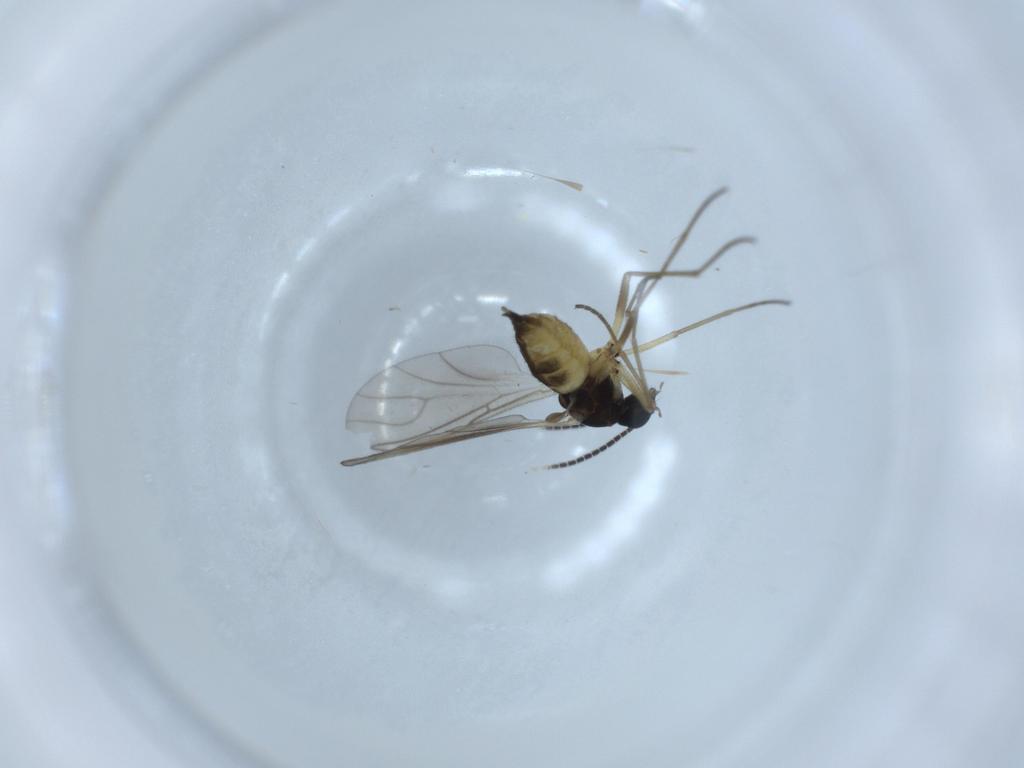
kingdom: Animalia
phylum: Arthropoda
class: Insecta
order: Diptera
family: Sciaridae
